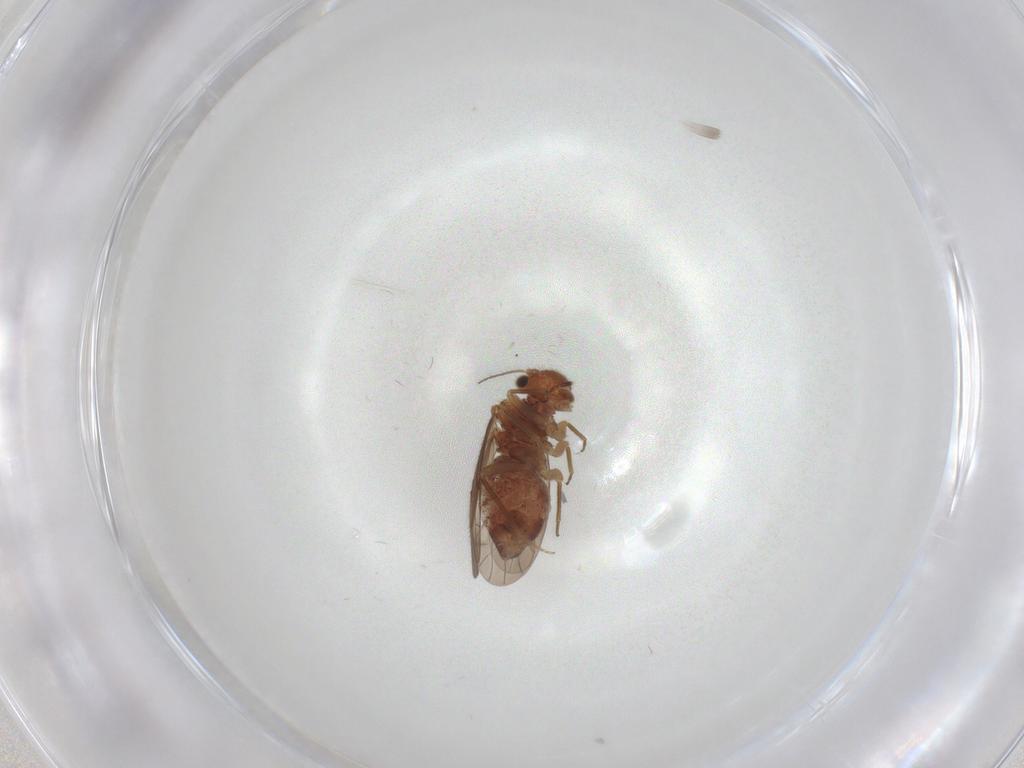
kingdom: Animalia
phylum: Arthropoda
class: Insecta
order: Psocodea
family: Ectopsocidae
